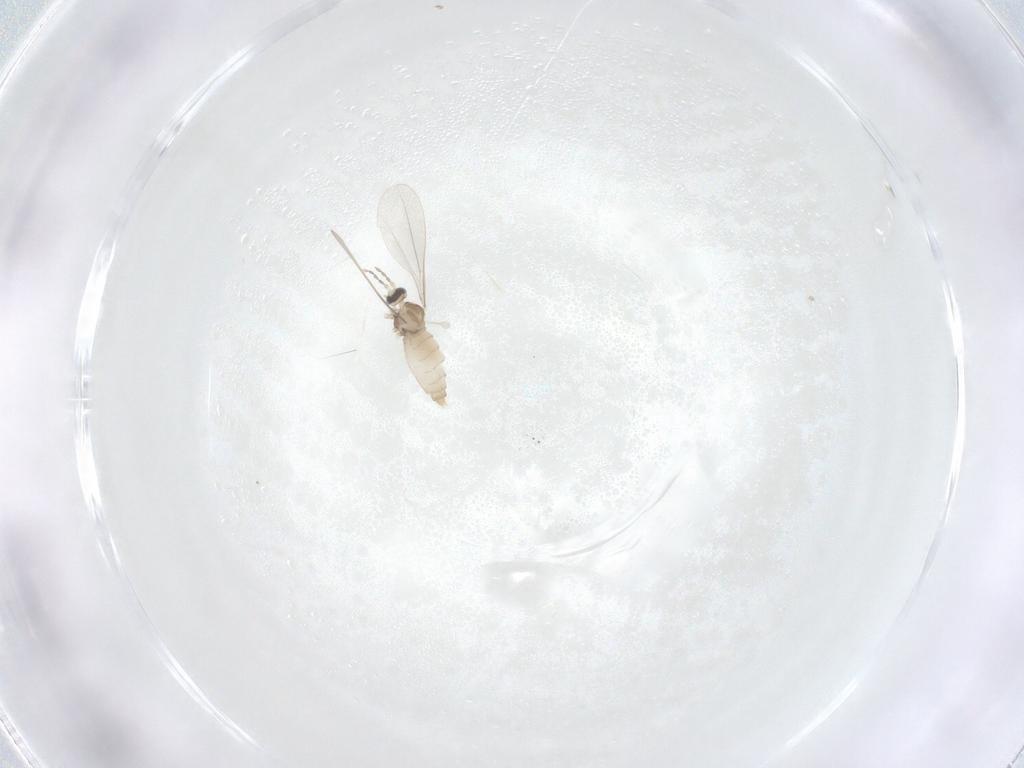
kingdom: Animalia
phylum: Arthropoda
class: Insecta
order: Diptera
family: Cecidomyiidae
